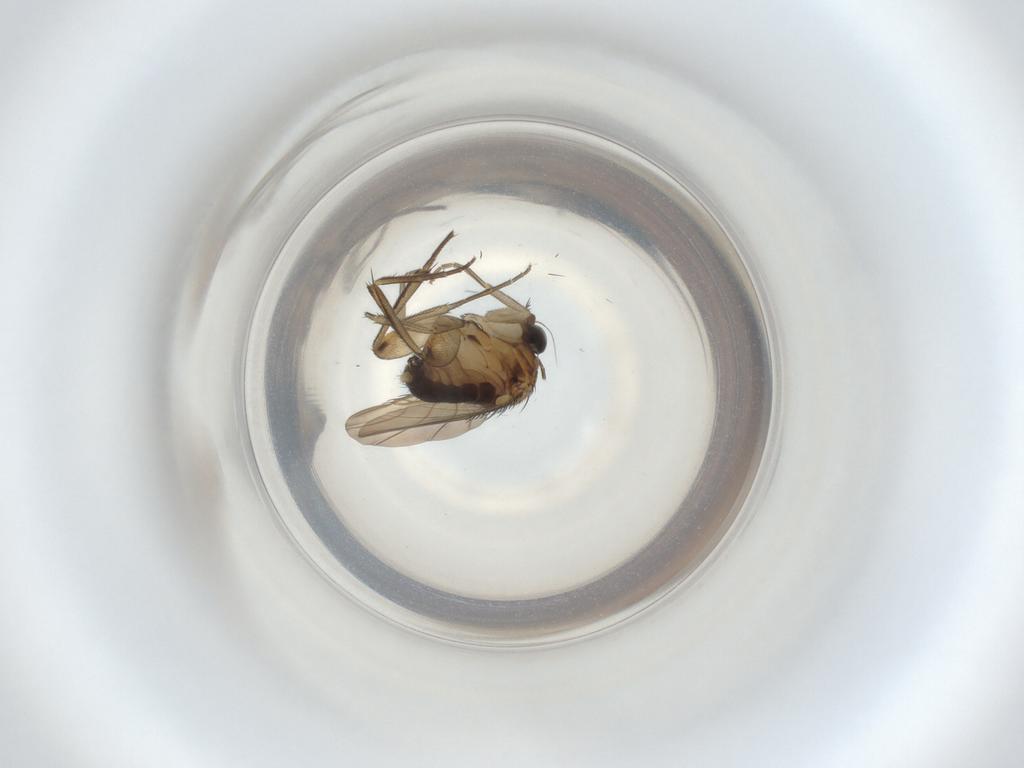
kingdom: Animalia
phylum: Arthropoda
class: Insecta
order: Diptera
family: Phoridae
